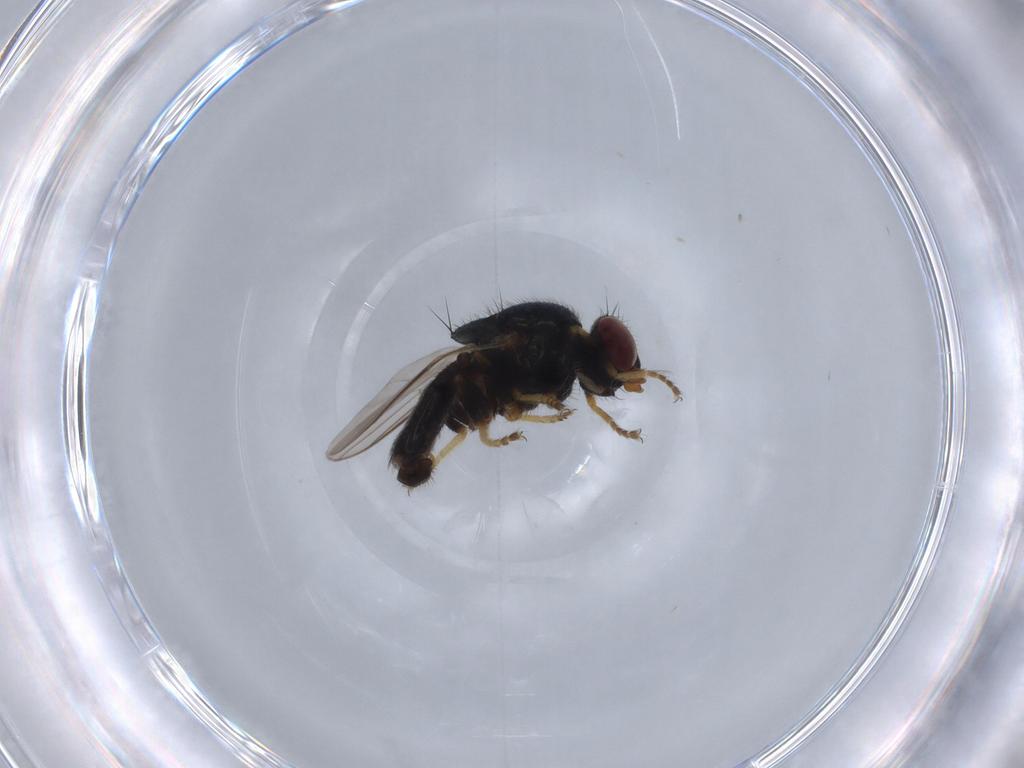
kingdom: Animalia
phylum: Arthropoda
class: Insecta
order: Diptera
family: Chloropidae
